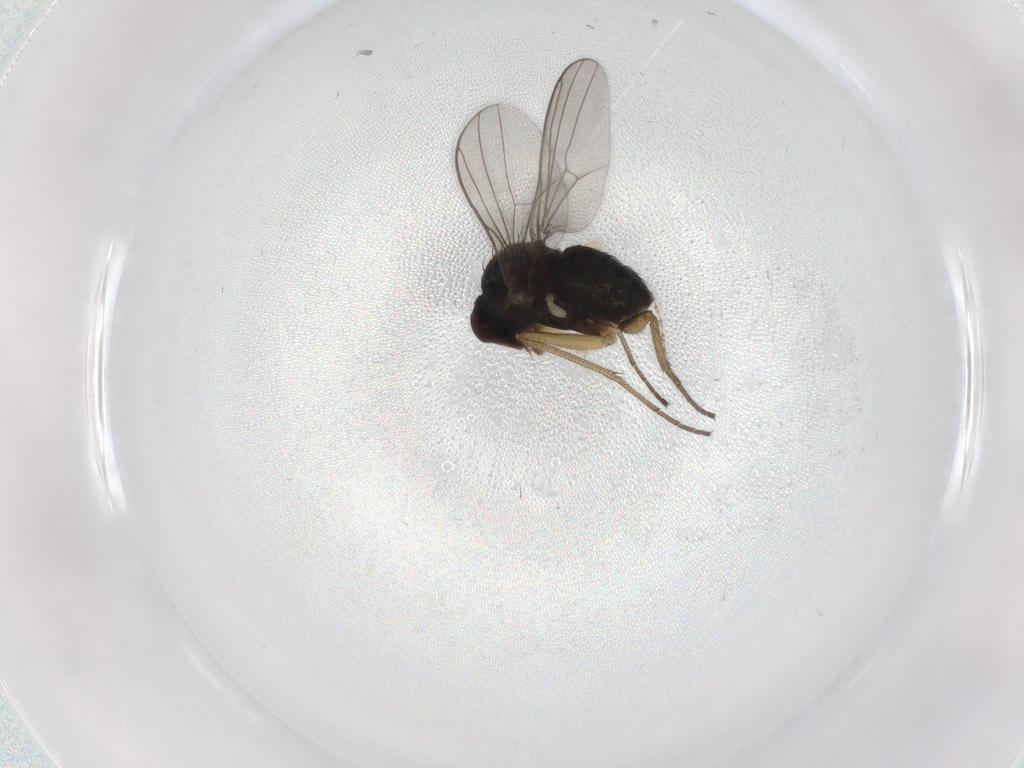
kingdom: Animalia
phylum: Arthropoda
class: Insecta
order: Diptera
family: Dolichopodidae
